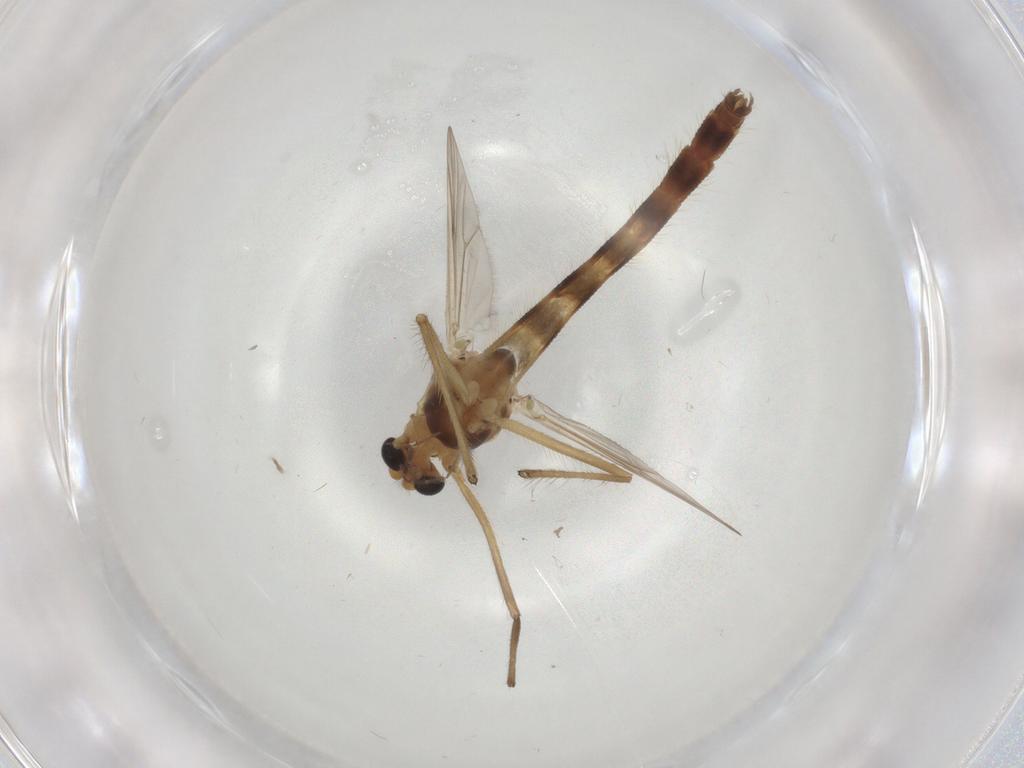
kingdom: Animalia
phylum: Arthropoda
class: Insecta
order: Diptera
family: Chironomidae
